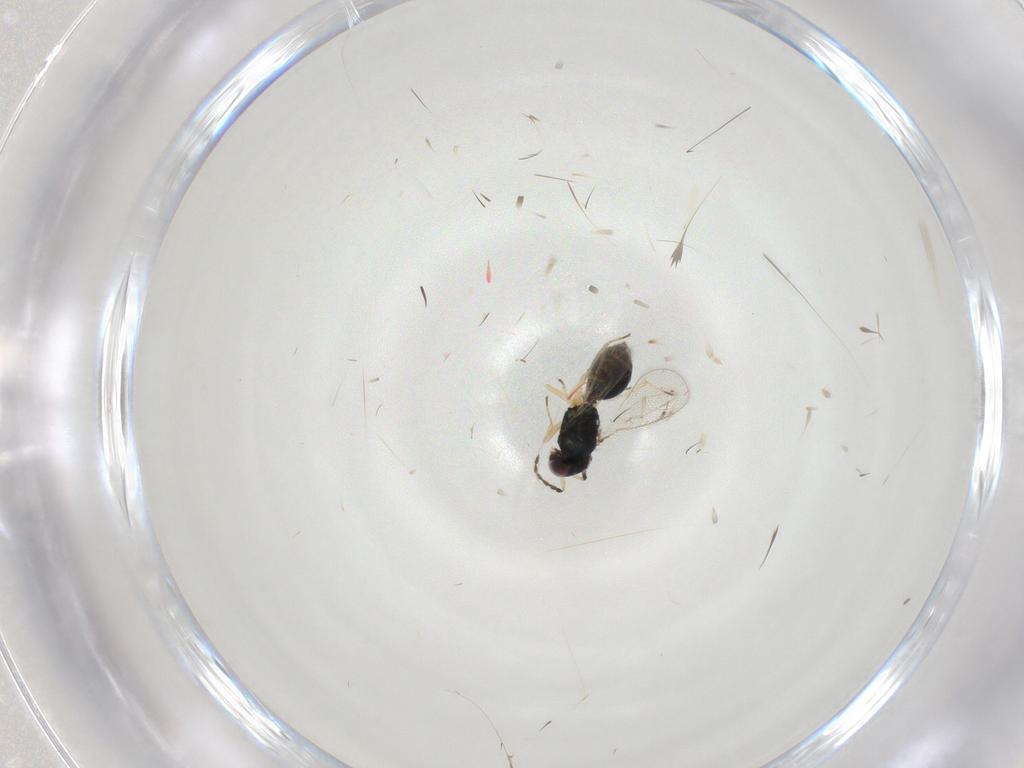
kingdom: Animalia
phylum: Arthropoda
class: Insecta
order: Hymenoptera
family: Eulophidae
